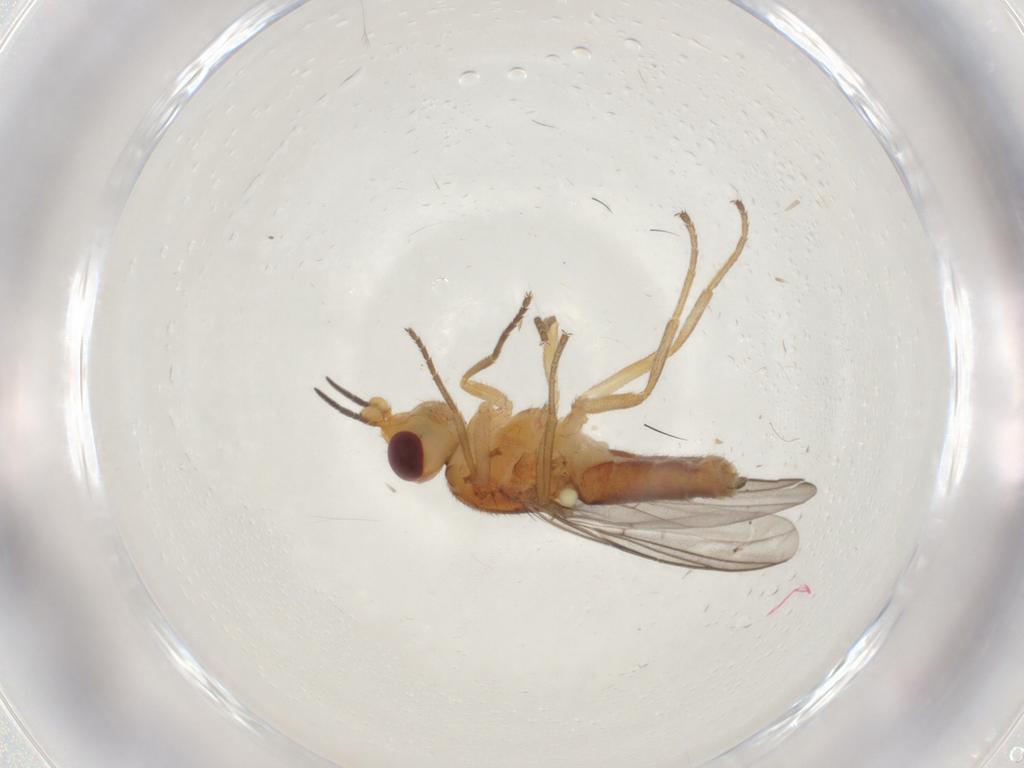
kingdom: Animalia
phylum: Arthropoda
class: Insecta
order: Diptera
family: Chloropidae
